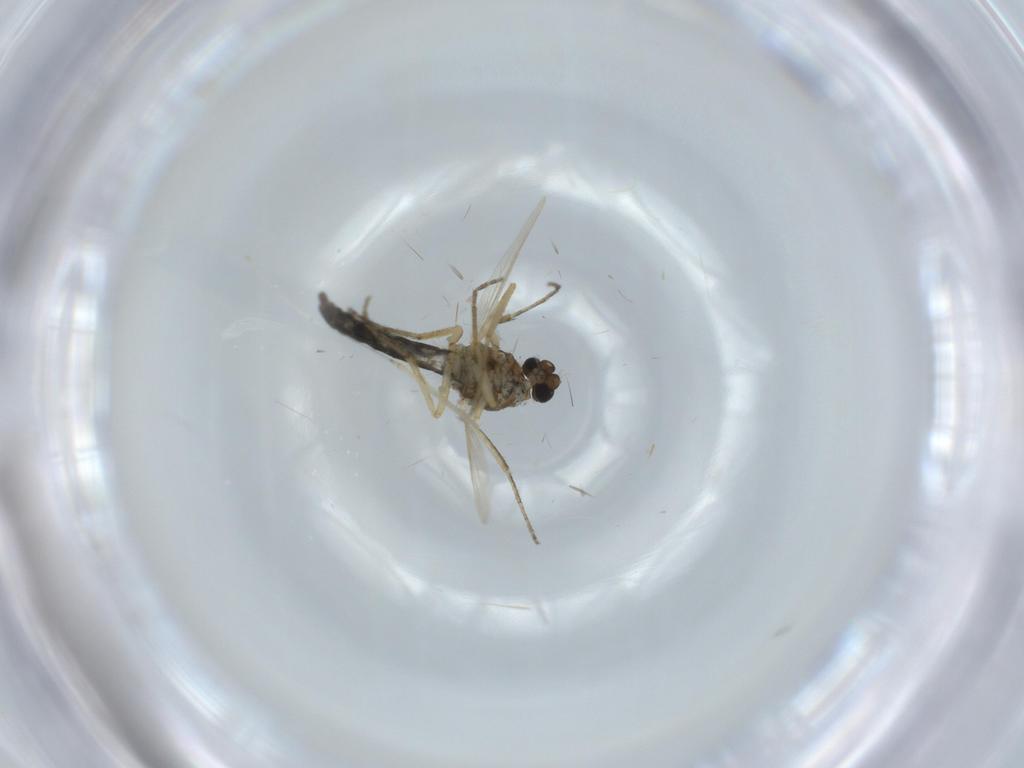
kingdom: Animalia
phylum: Arthropoda
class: Insecta
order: Diptera
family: Ceratopogonidae
